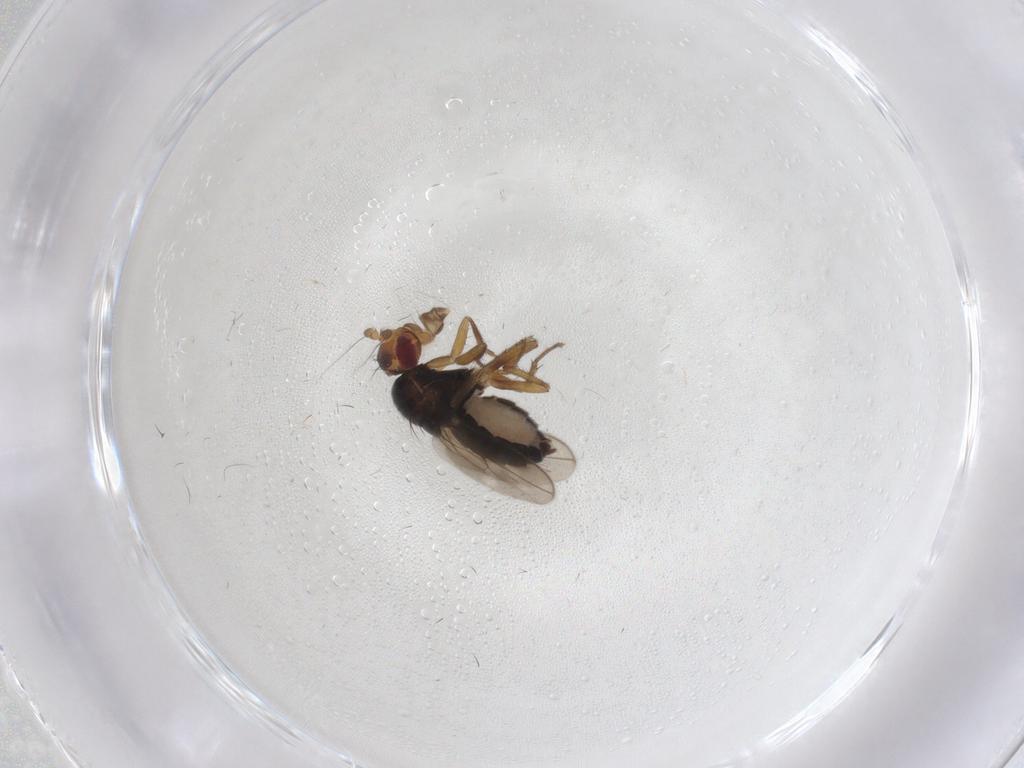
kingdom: Animalia
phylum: Arthropoda
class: Insecta
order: Diptera
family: Sphaeroceridae
